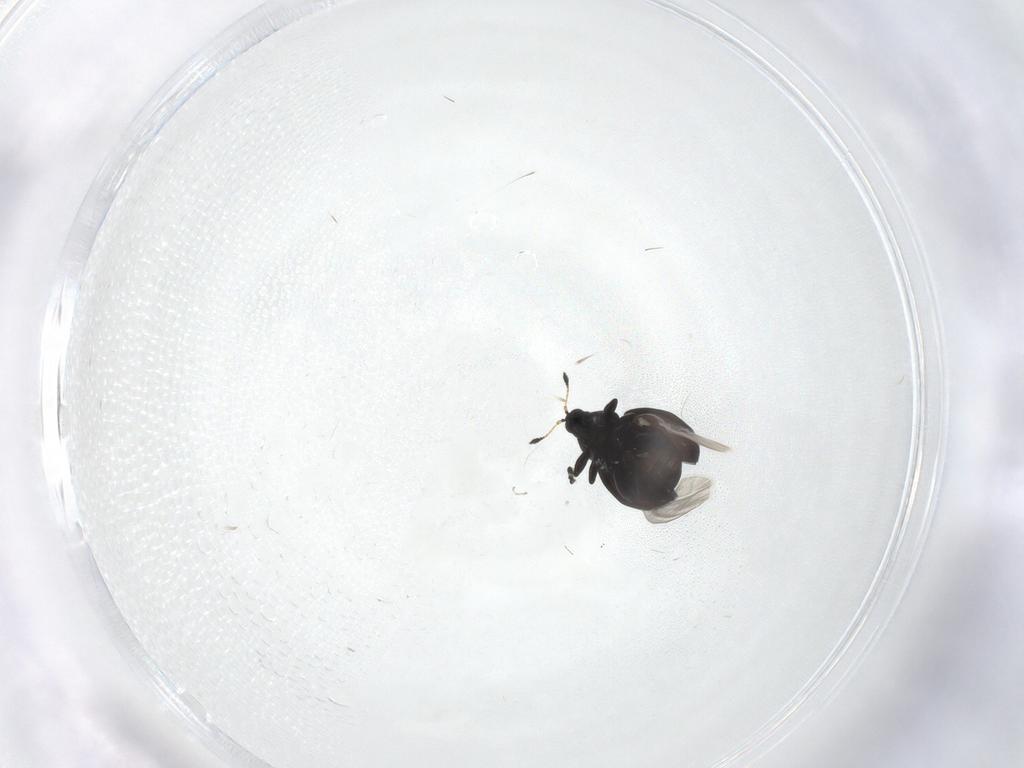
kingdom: Animalia
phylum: Arthropoda
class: Insecta
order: Coleoptera
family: Curculionidae
